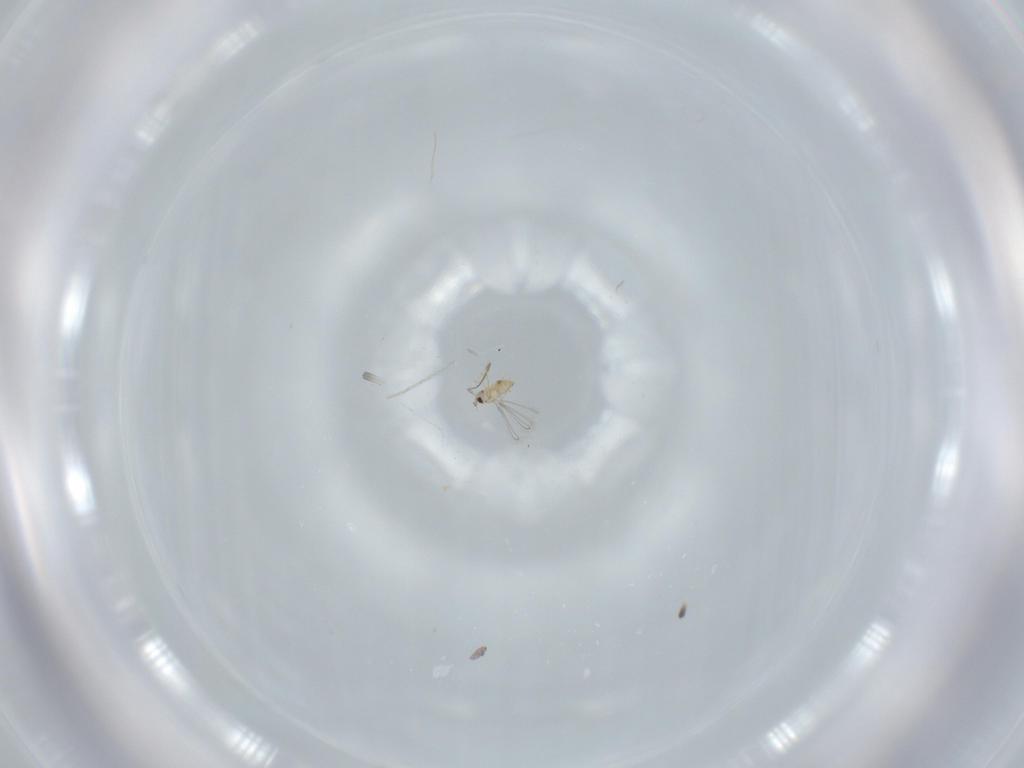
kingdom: Animalia
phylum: Arthropoda
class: Insecta
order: Hymenoptera
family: Mymaridae
